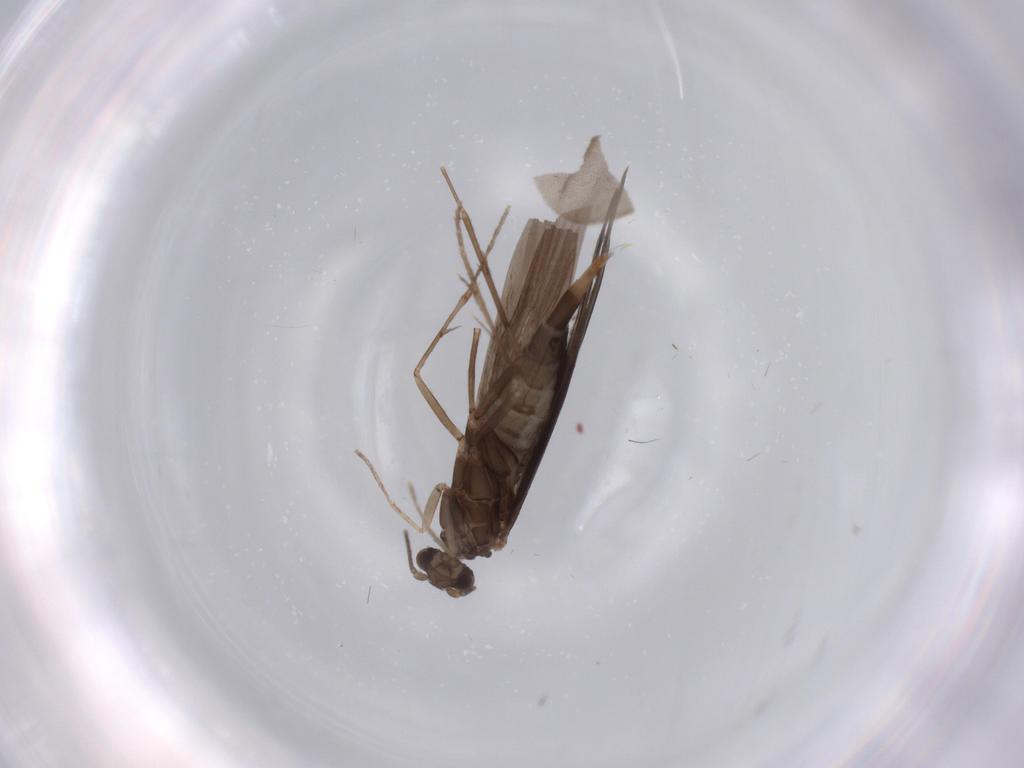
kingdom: Animalia
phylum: Arthropoda
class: Insecta
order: Trichoptera
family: Xiphocentronidae
